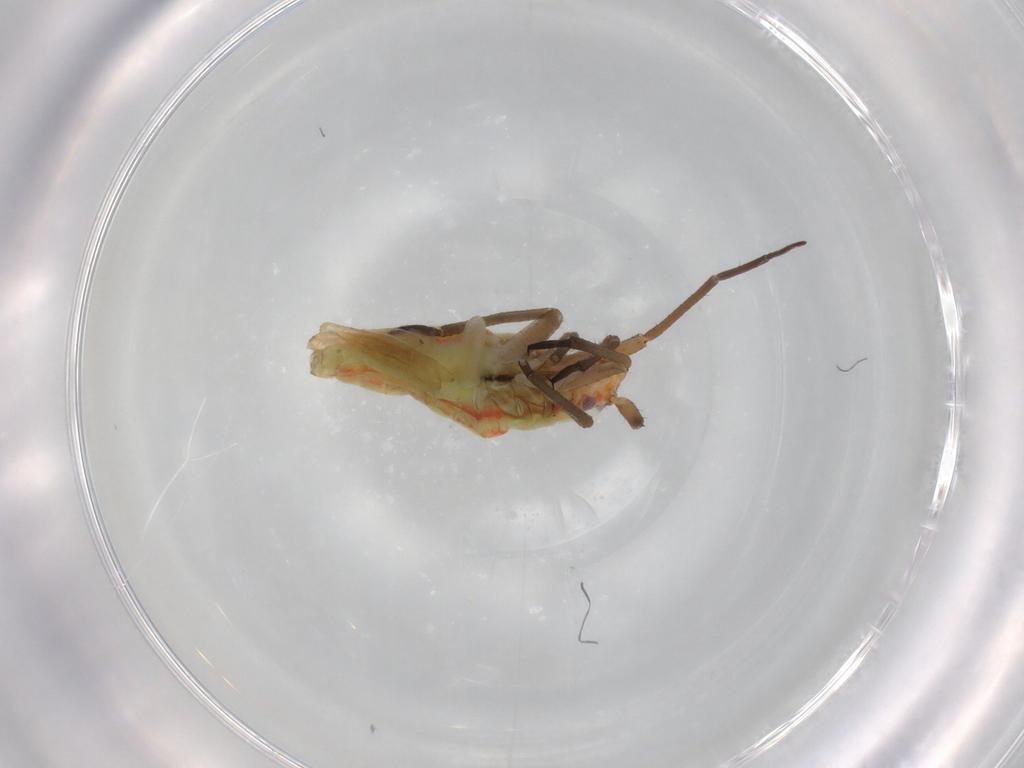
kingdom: Animalia
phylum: Arthropoda
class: Insecta
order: Hemiptera
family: Miridae
